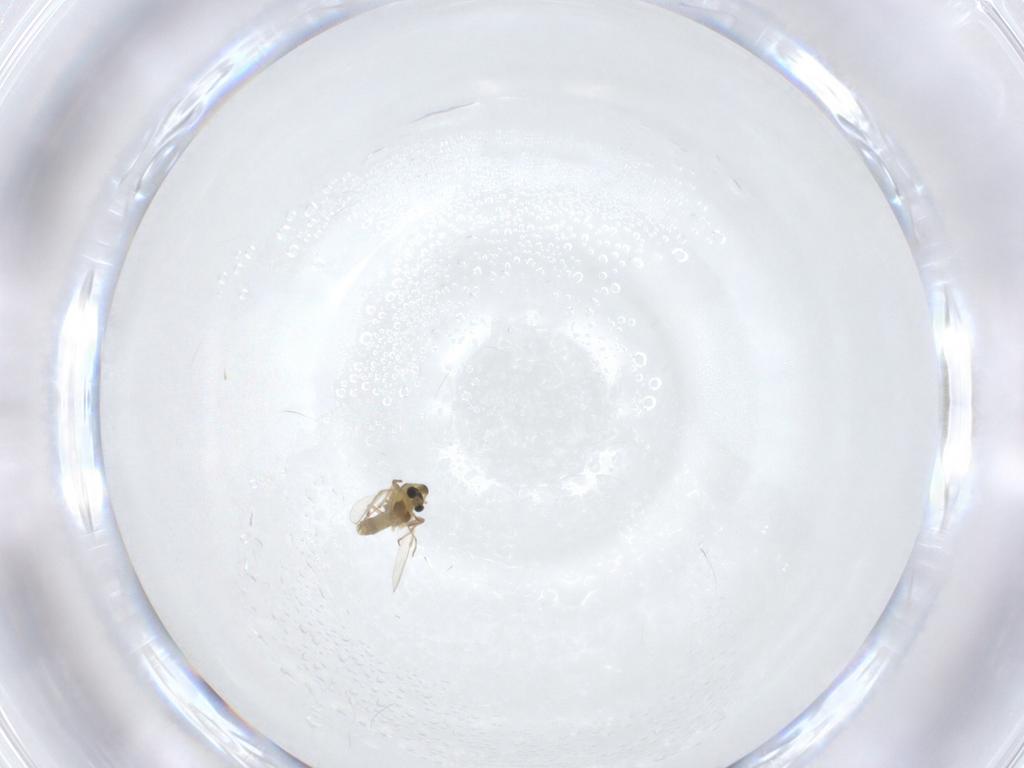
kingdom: Animalia
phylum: Arthropoda
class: Insecta
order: Diptera
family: Chironomidae
